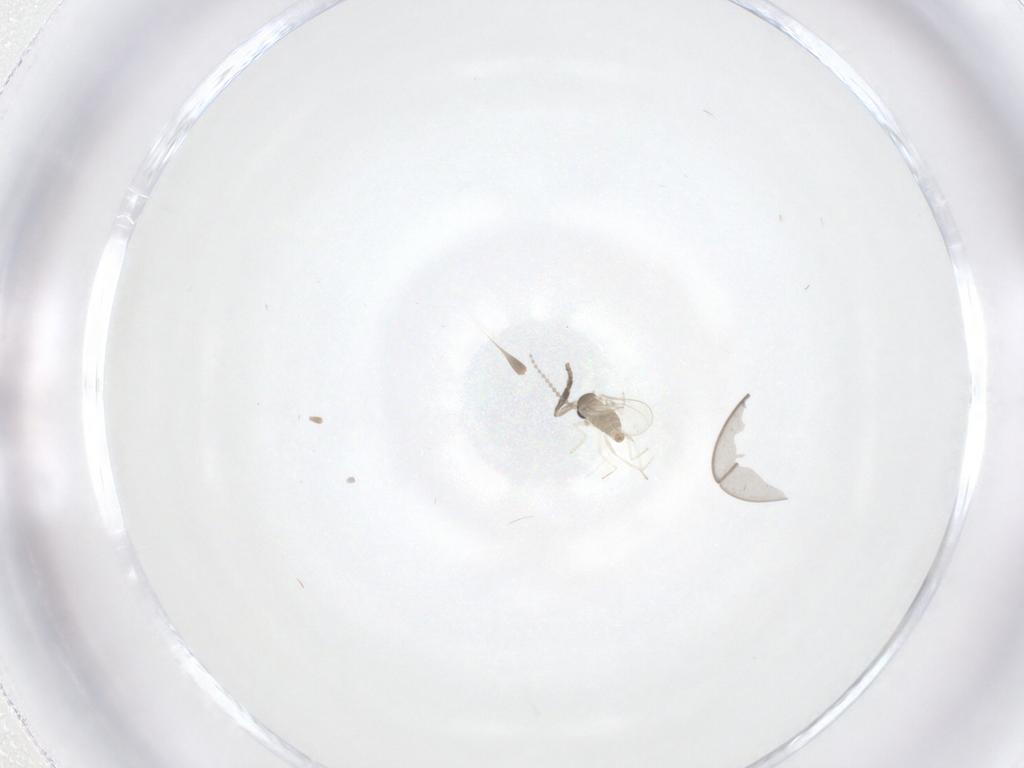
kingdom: Animalia
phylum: Arthropoda
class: Insecta
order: Diptera
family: Cecidomyiidae
